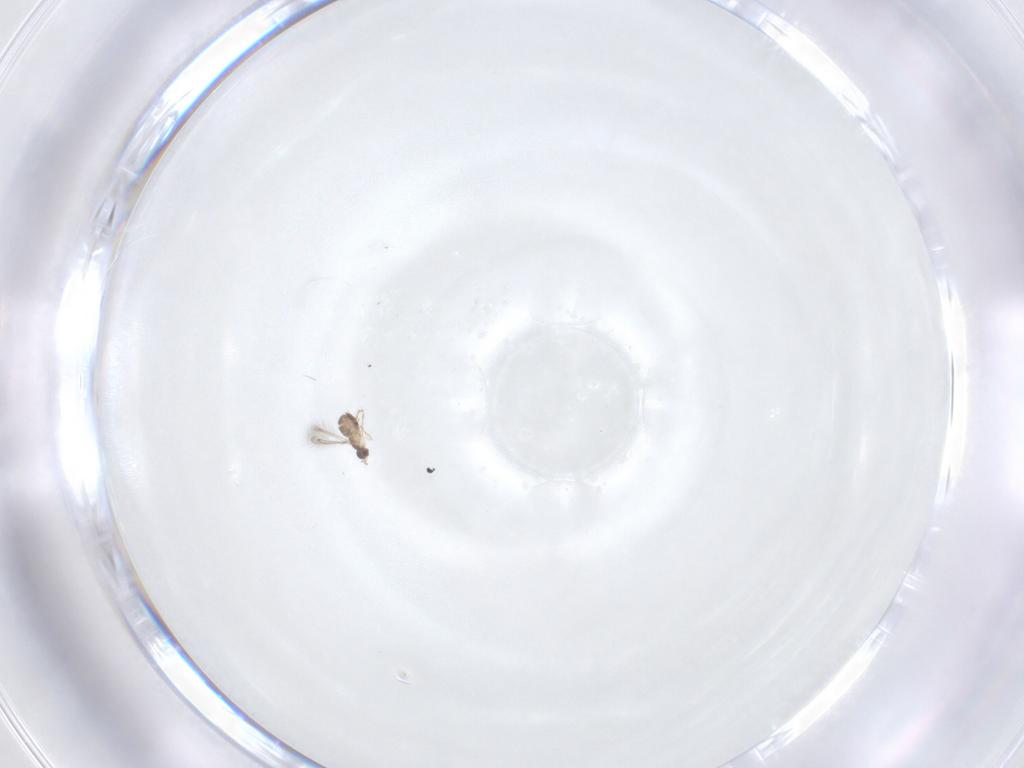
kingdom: Animalia
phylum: Arthropoda
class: Insecta
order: Hymenoptera
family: Mymaridae
